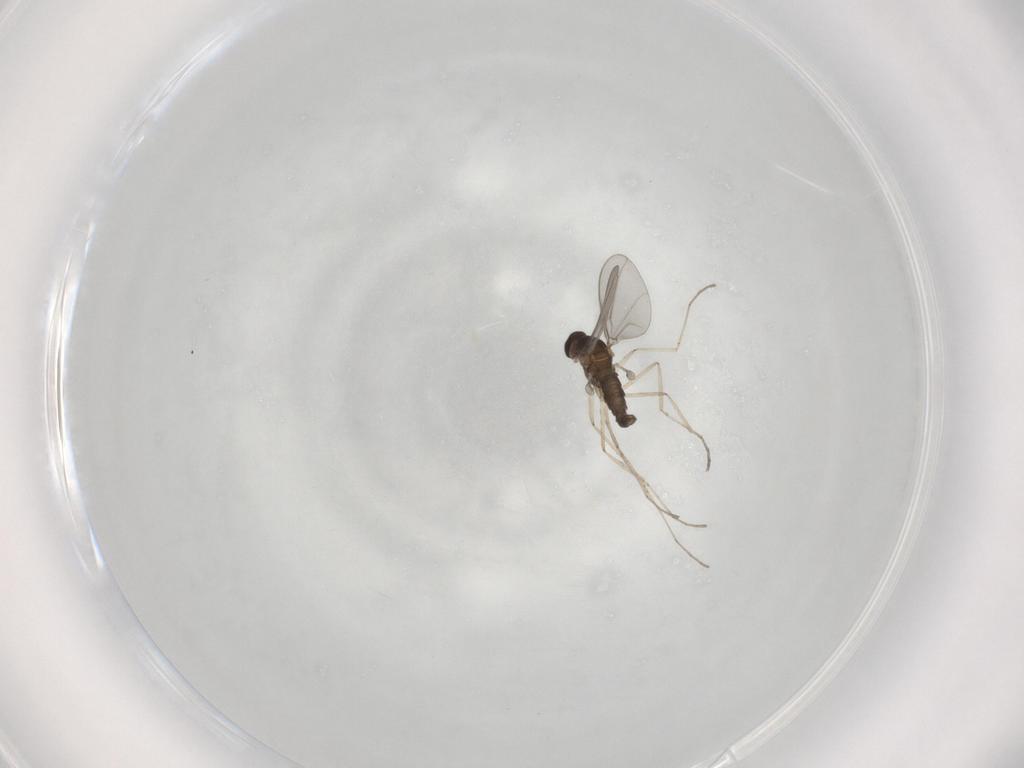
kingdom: Animalia
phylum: Arthropoda
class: Insecta
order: Diptera
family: Cecidomyiidae
